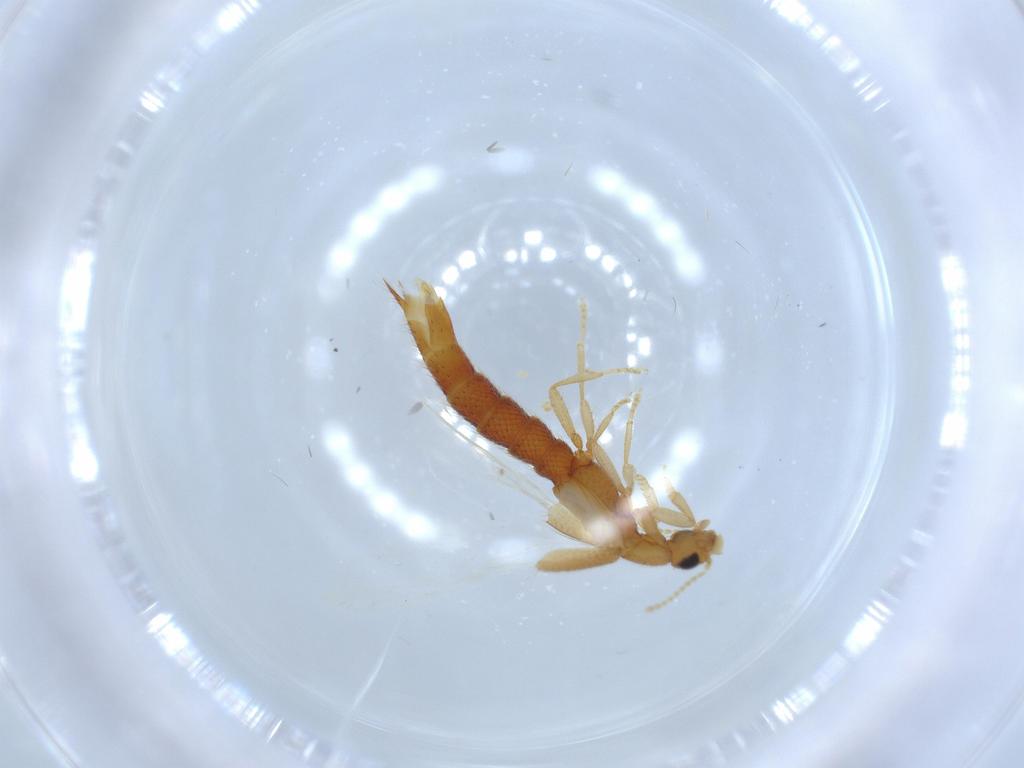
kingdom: Animalia
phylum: Arthropoda
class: Insecta
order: Coleoptera
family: Staphylinidae
